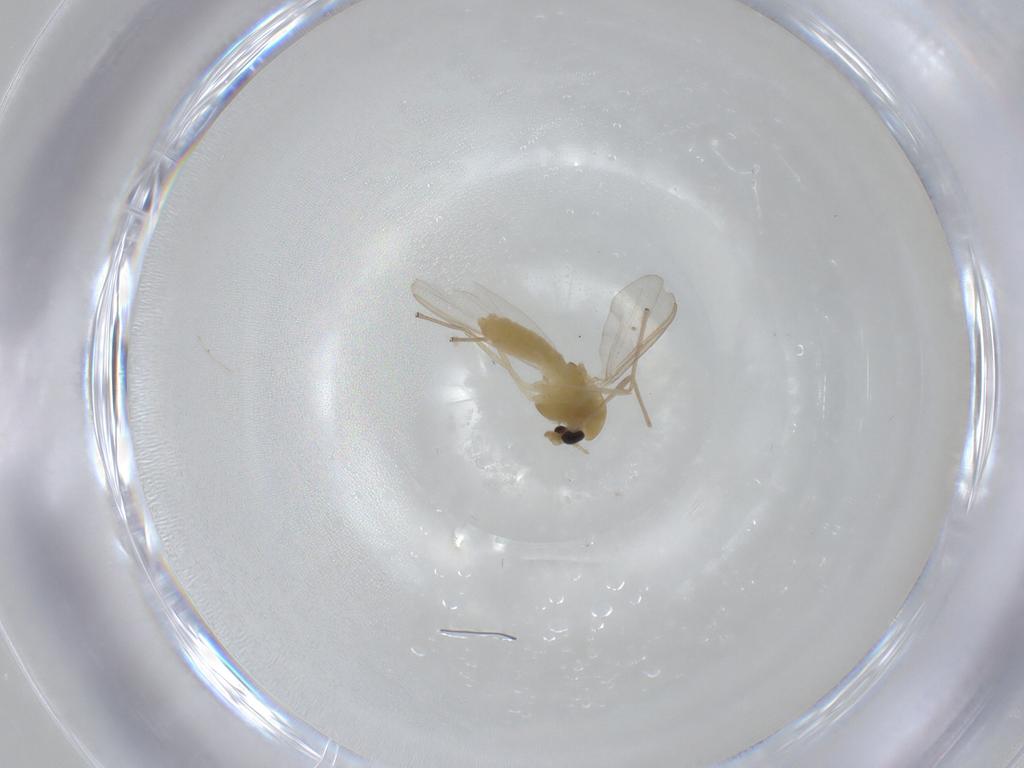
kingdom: Animalia
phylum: Arthropoda
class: Insecta
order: Diptera
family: Chironomidae
